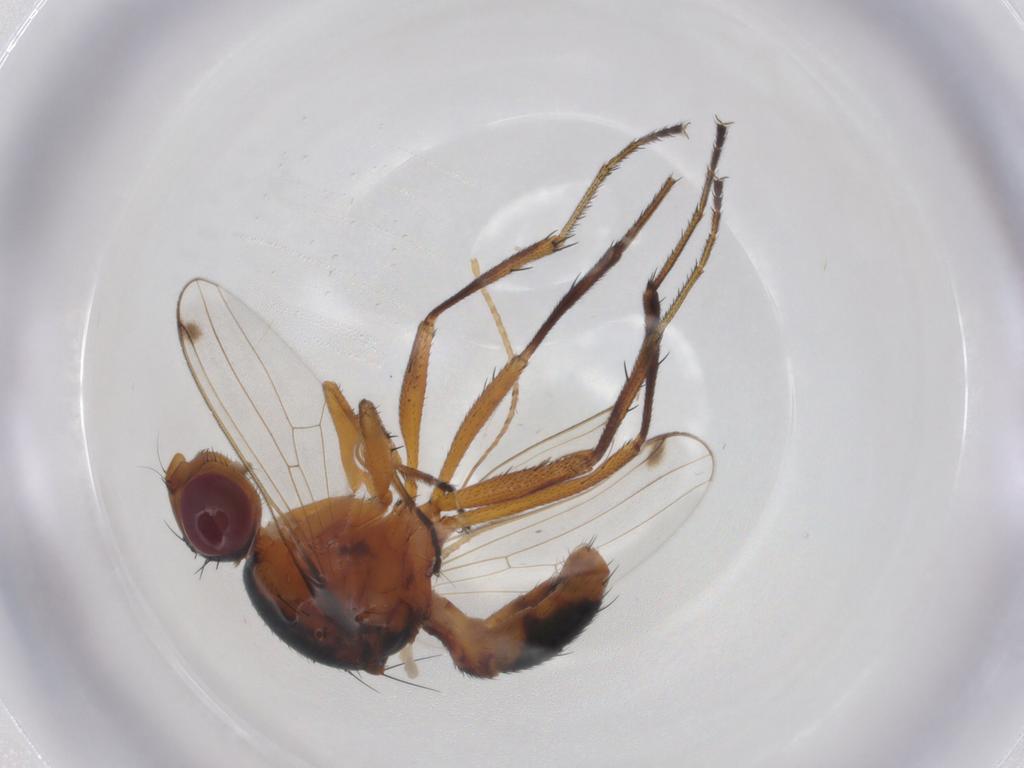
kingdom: Animalia
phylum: Arthropoda
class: Insecta
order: Diptera
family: Sepsidae
